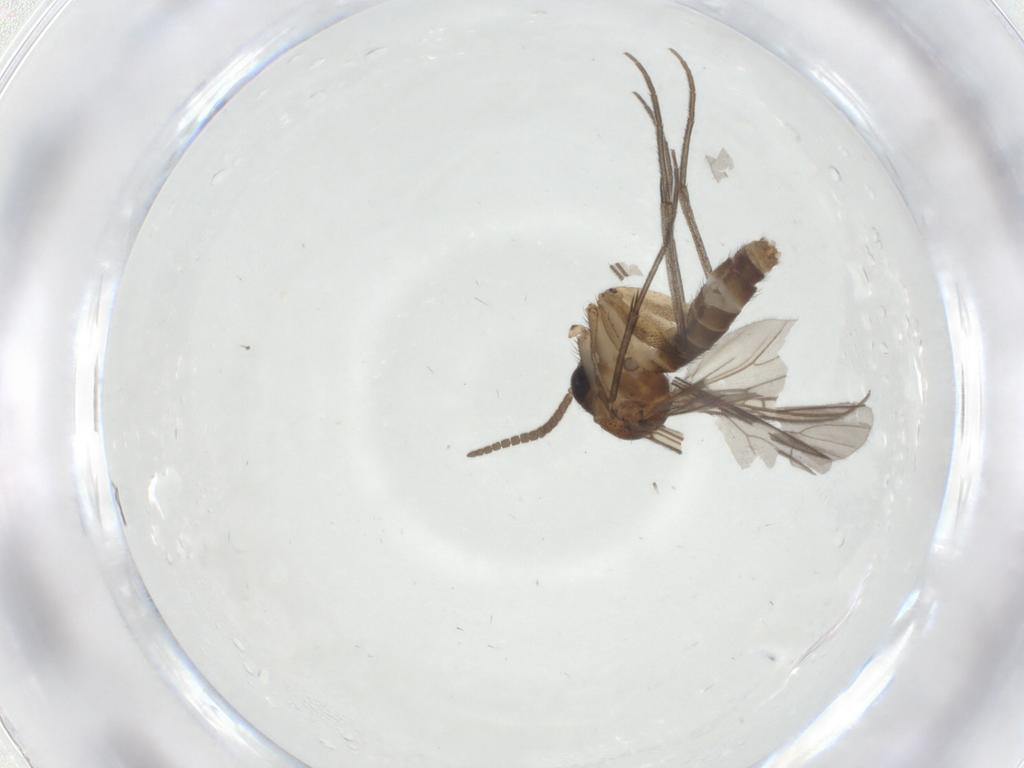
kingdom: Animalia
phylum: Arthropoda
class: Insecta
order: Diptera
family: Mycetophilidae
